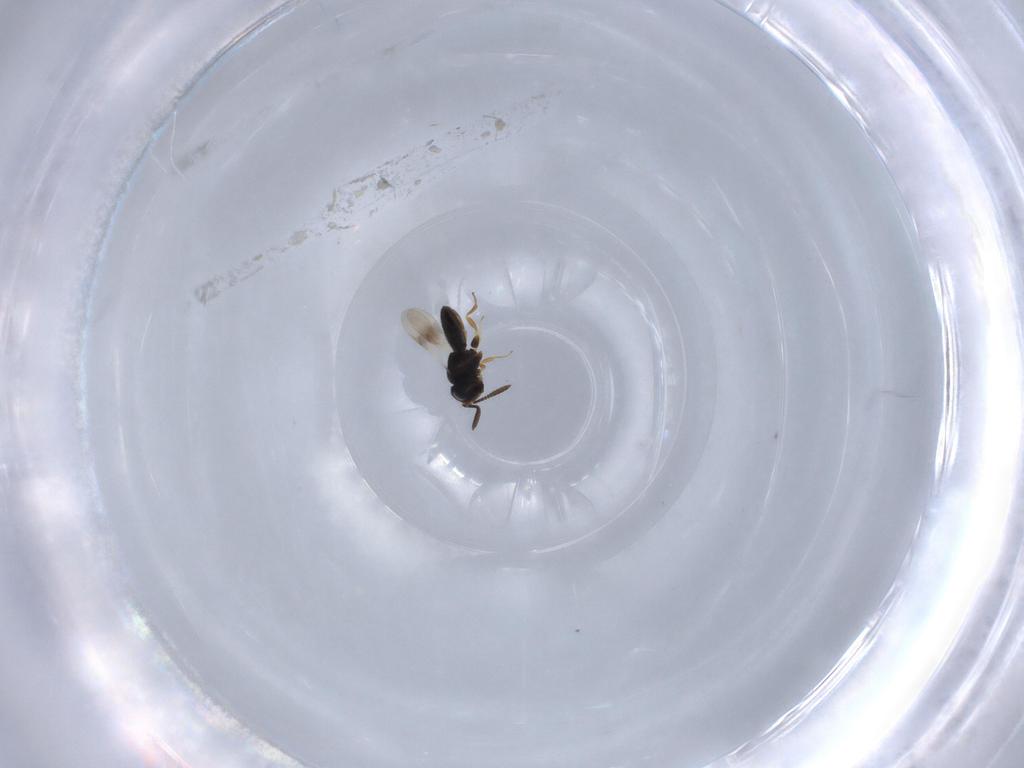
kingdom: Animalia
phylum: Arthropoda
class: Insecta
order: Hymenoptera
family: Scelionidae
